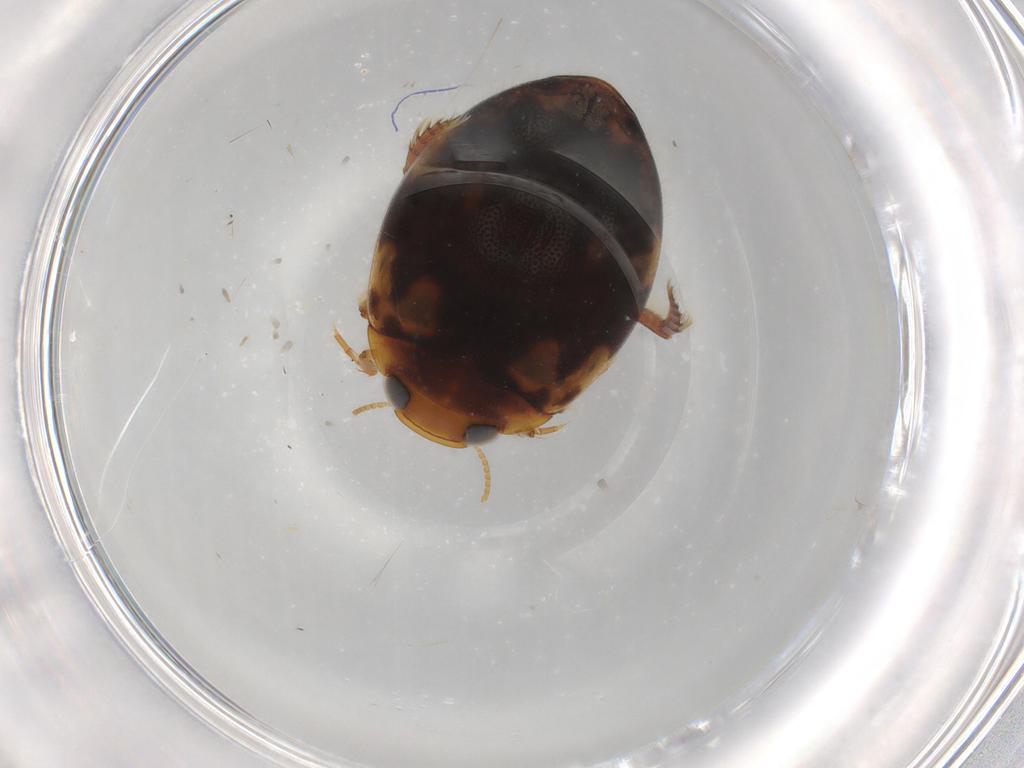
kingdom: Animalia
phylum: Arthropoda
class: Insecta
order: Coleoptera
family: Dytiscidae
